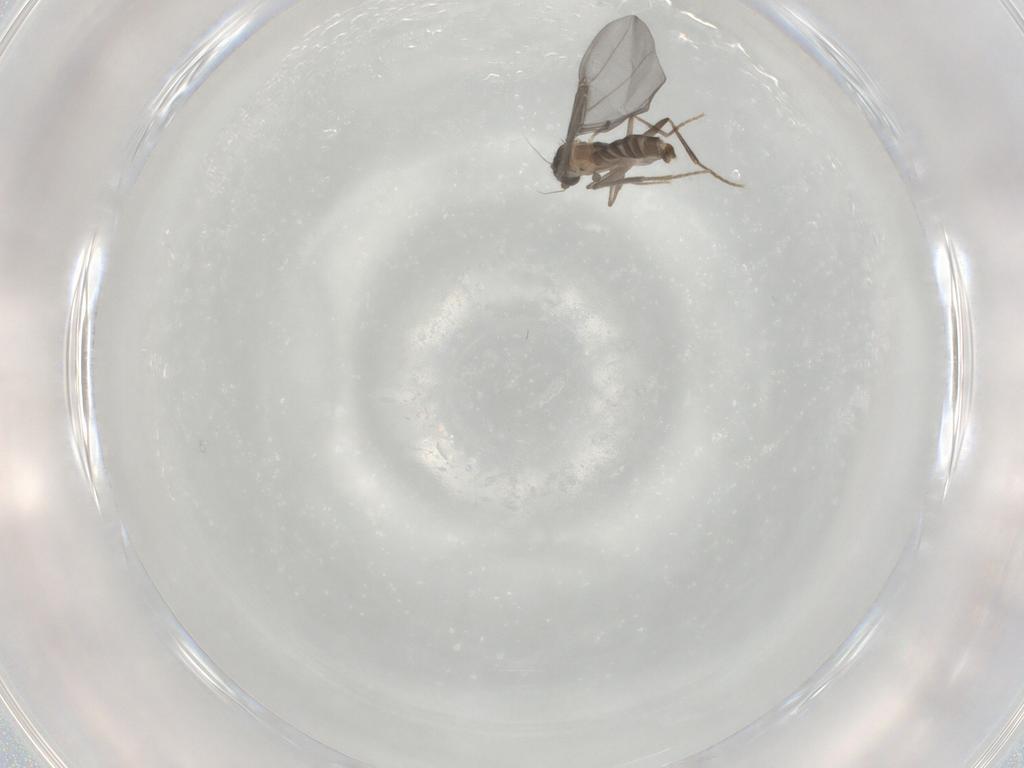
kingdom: Animalia
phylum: Arthropoda
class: Insecta
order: Diptera
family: Phoridae
